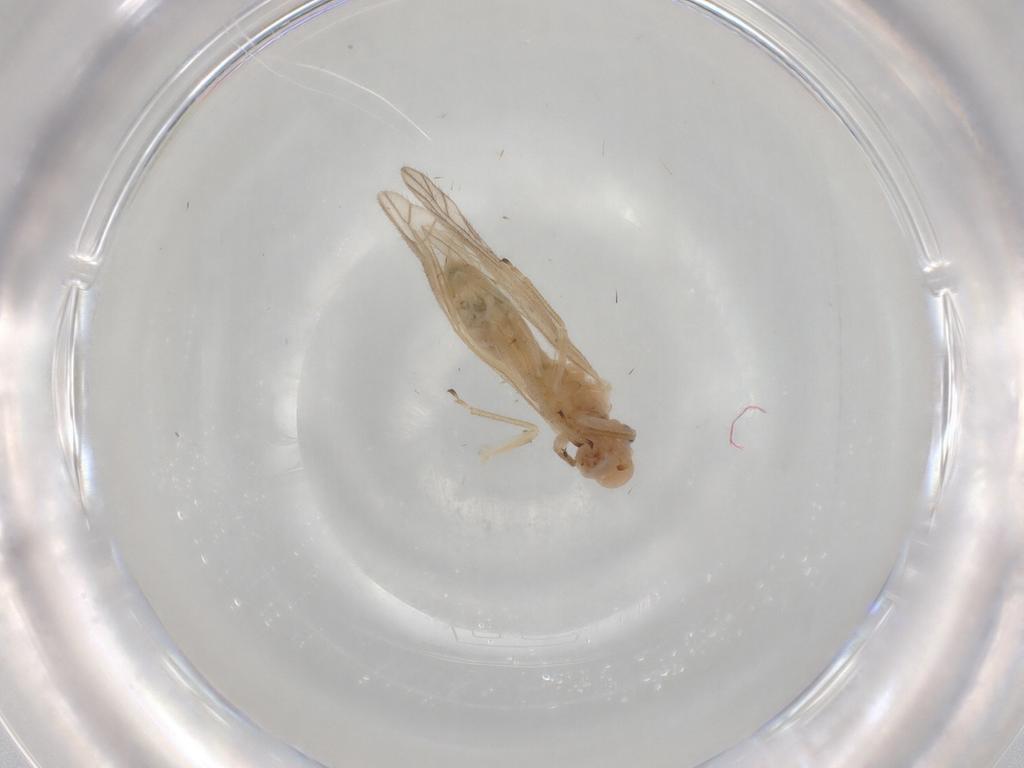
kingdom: Animalia
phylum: Arthropoda
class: Insecta
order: Psocodea
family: Caeciliusidae
